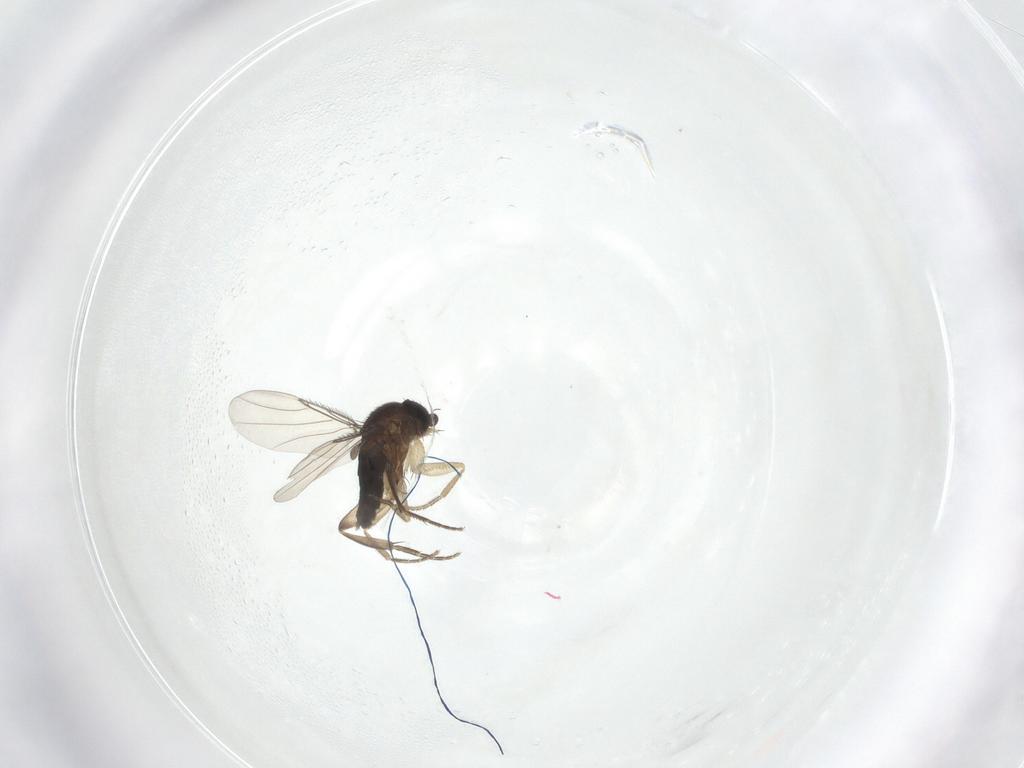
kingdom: Animalia
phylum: Arthropoda
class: Insecta
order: Diptera
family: Phoridae
